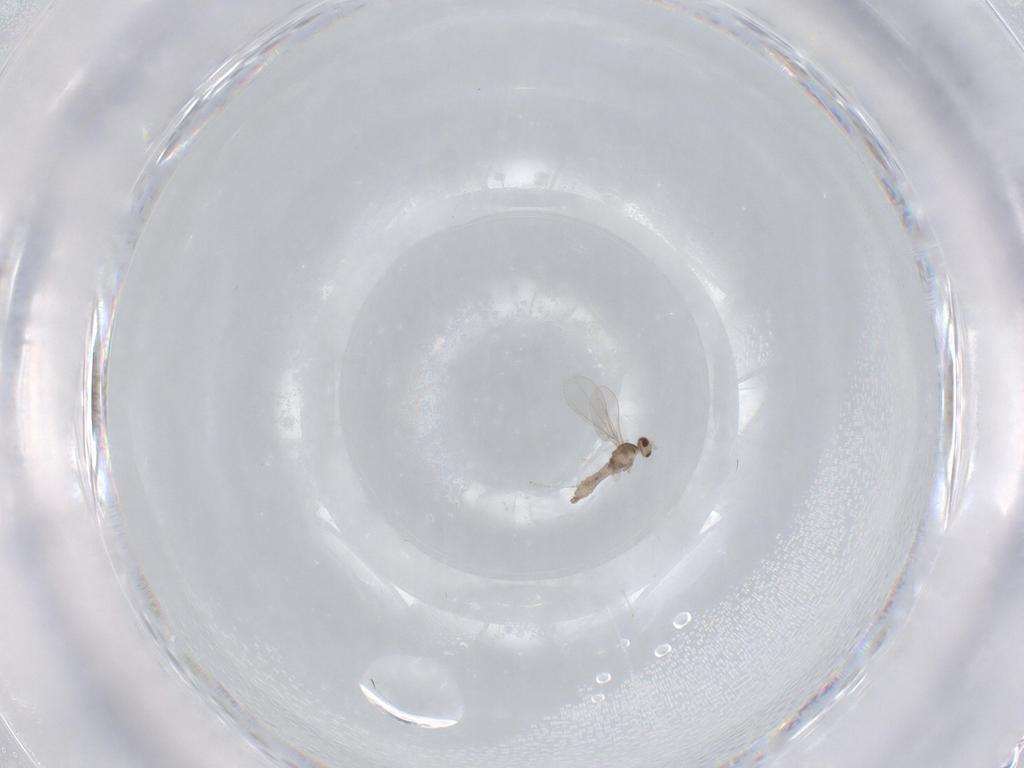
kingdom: Animalia
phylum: Arthropoda
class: Insecta
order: Diptera
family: Cecidomyiidae
